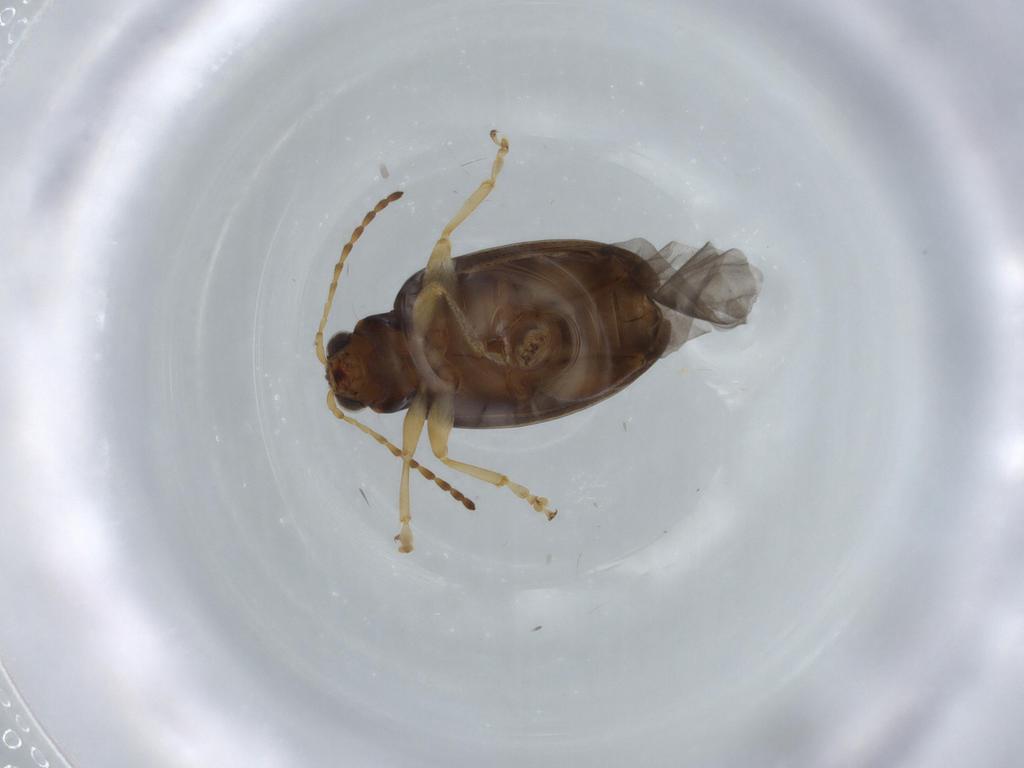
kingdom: Animalia
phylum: Arthropoda
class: Insecta
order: Coleoptera
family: Chrysomelidae
